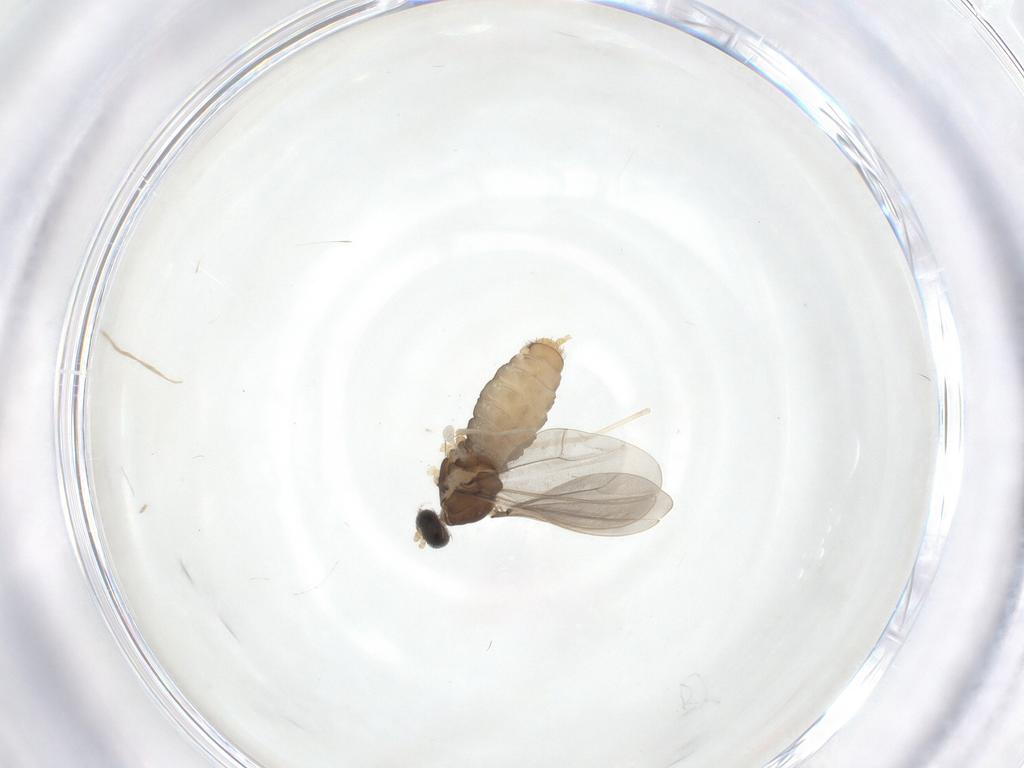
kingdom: Animalia
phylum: Arthropoda
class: Insecta
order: Diptera
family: Cecidomyiidae
